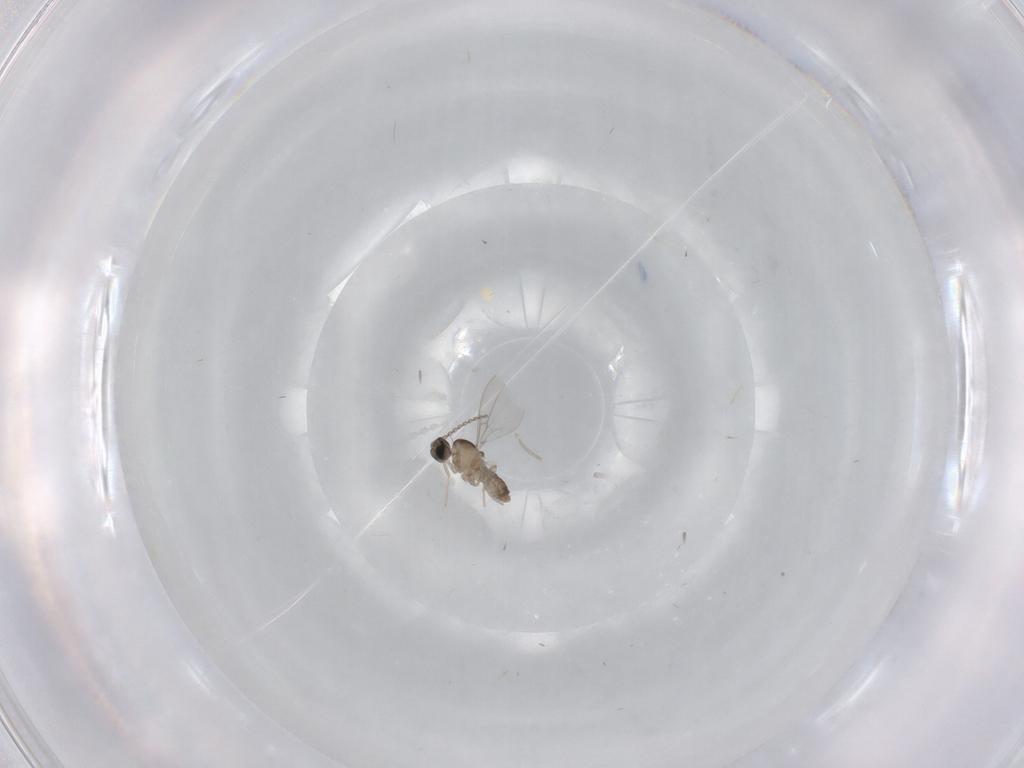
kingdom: Animalia
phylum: Arthropoda
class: Insecta
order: Diptera
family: Cecidomyiidae
